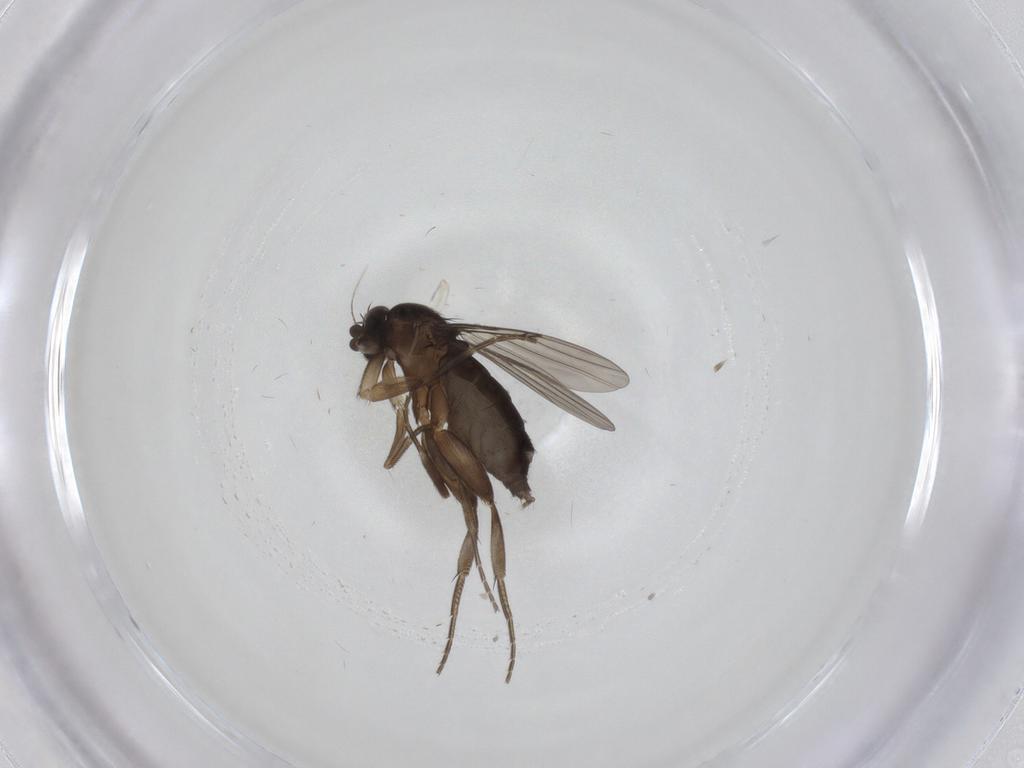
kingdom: Animalia
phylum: Arthropoda
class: Insecta
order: Diptera
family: Phoridae
